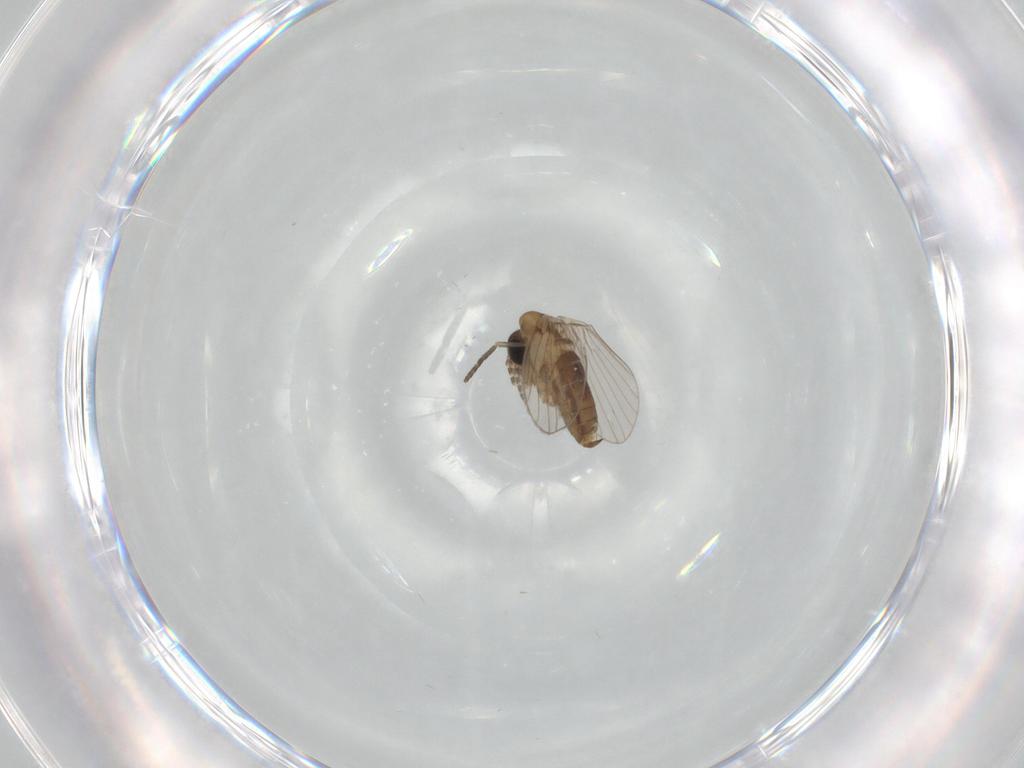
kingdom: Animalia
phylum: Arthropoda
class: Insecta
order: Diptera
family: Psychodidae
